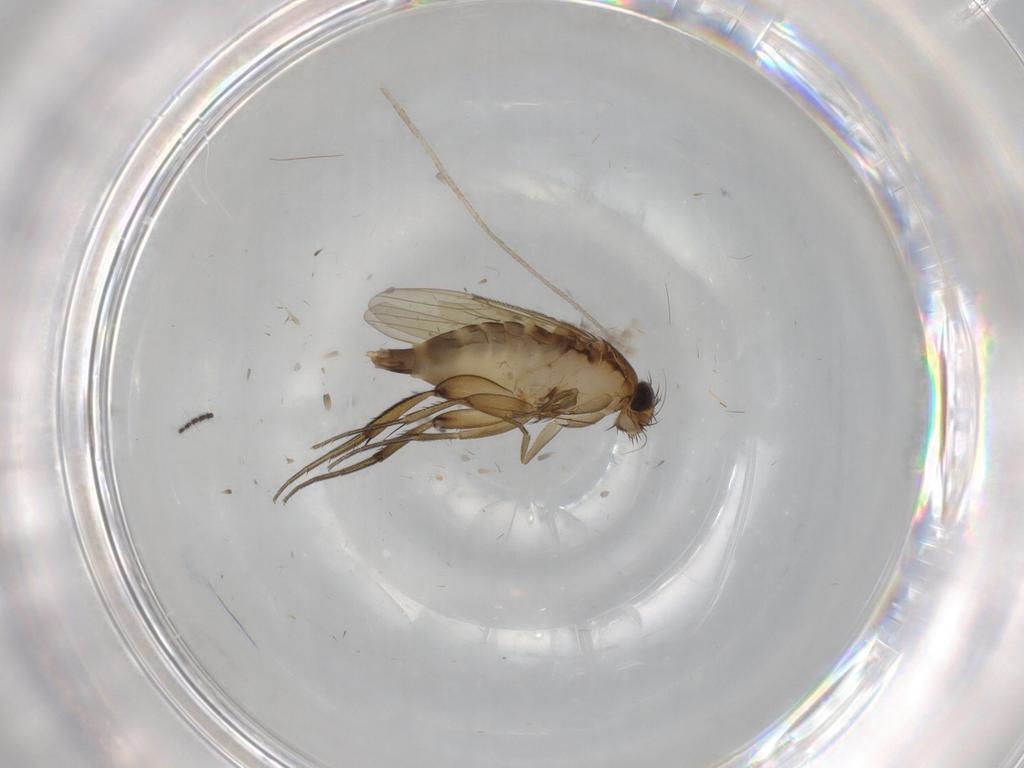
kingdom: Animalia
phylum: Arthropoda
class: Insecta
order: Diptera
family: Phoridae
